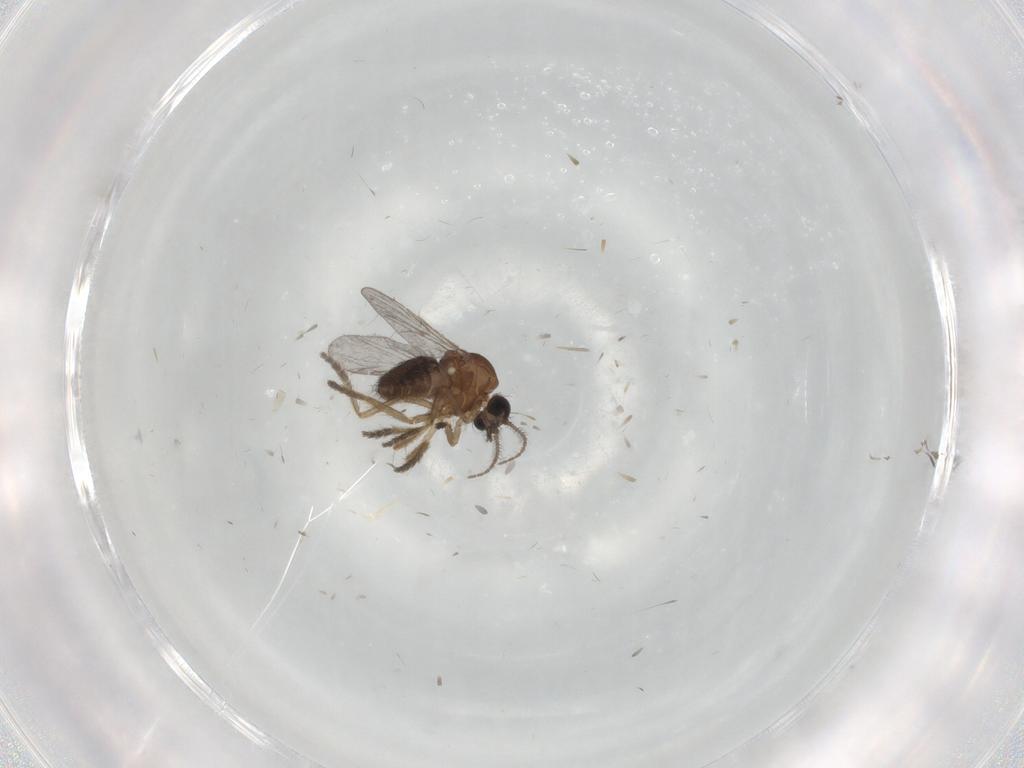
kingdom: Animalia
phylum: Arthropoda
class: Insecta
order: Diptera
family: Ceratopogonidae
